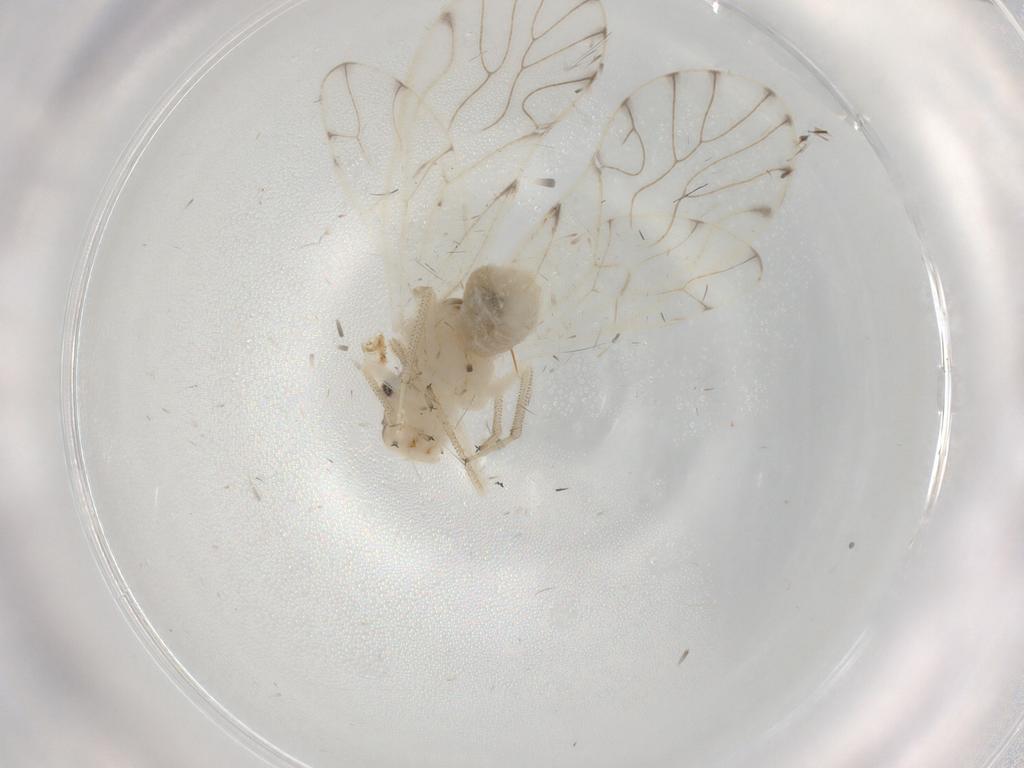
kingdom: Animalia
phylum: Arthropoda
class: Insecta
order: Psocodea
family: Philotarsidae
